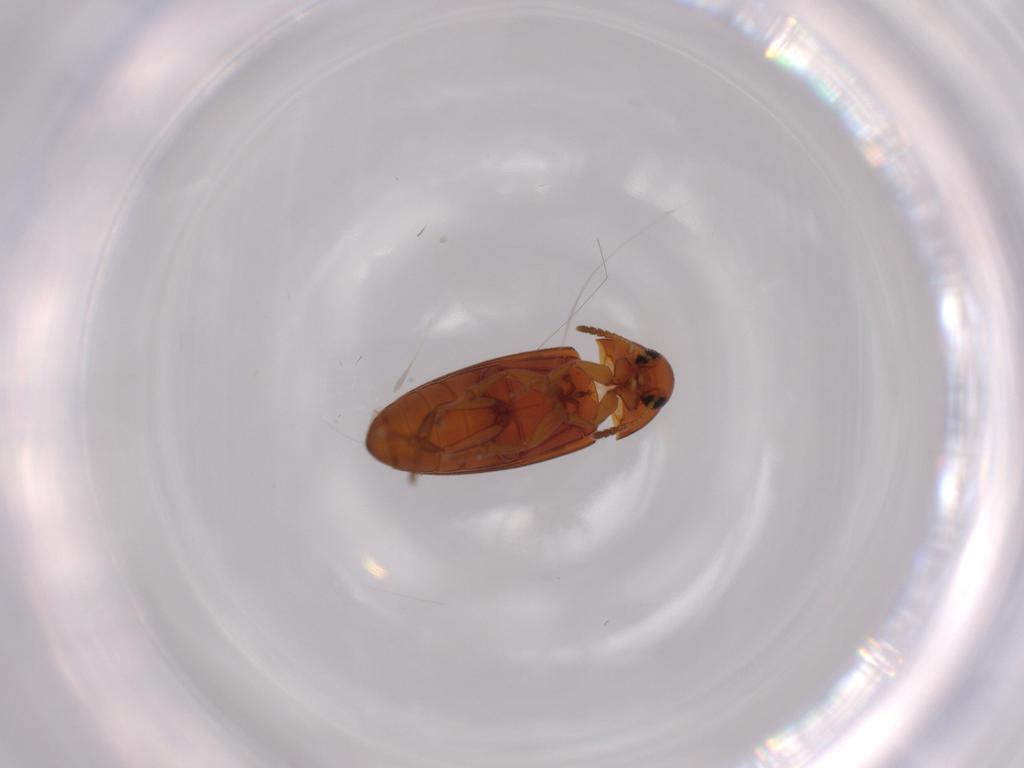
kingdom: Animalia
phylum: Arthropoda
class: Insecta
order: Coleoptera
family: Scraptiidae
